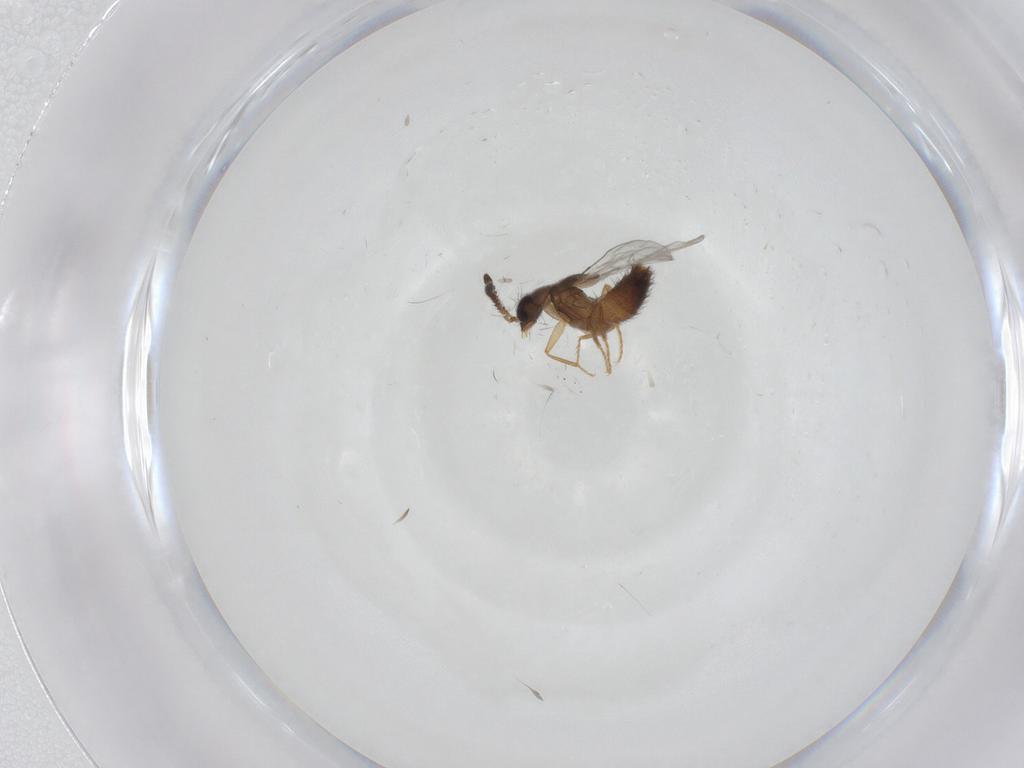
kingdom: Animalia
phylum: Arthropoda
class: Insecta
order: Coleoptera
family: Staphylinidae
